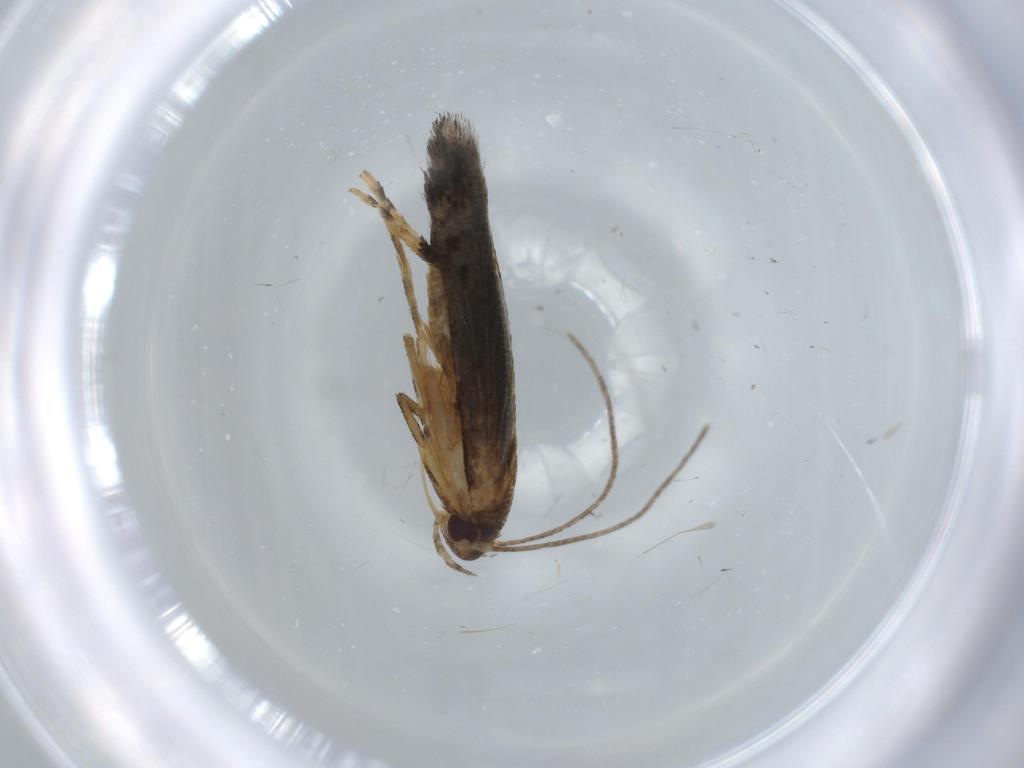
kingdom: Animalia
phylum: Arthropoda
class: Insecta
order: Lepidoptera
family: Momphidae
